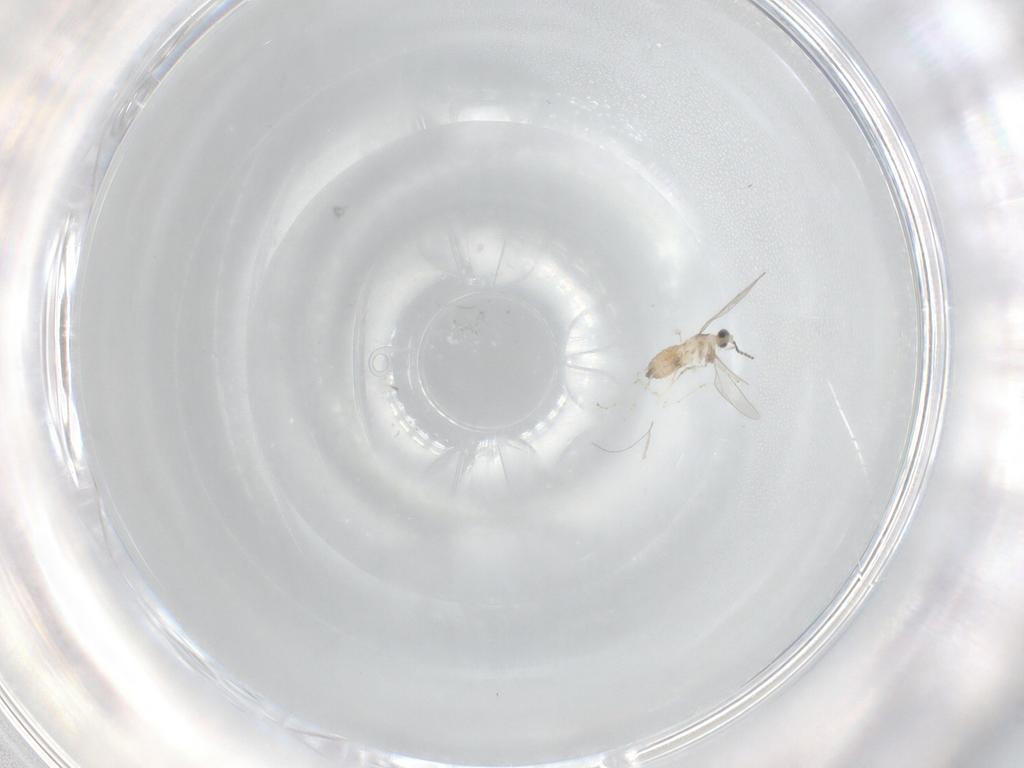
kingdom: Animalia
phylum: Arthropoda
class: Insecta
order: Diptera
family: Cecidomyiidae
